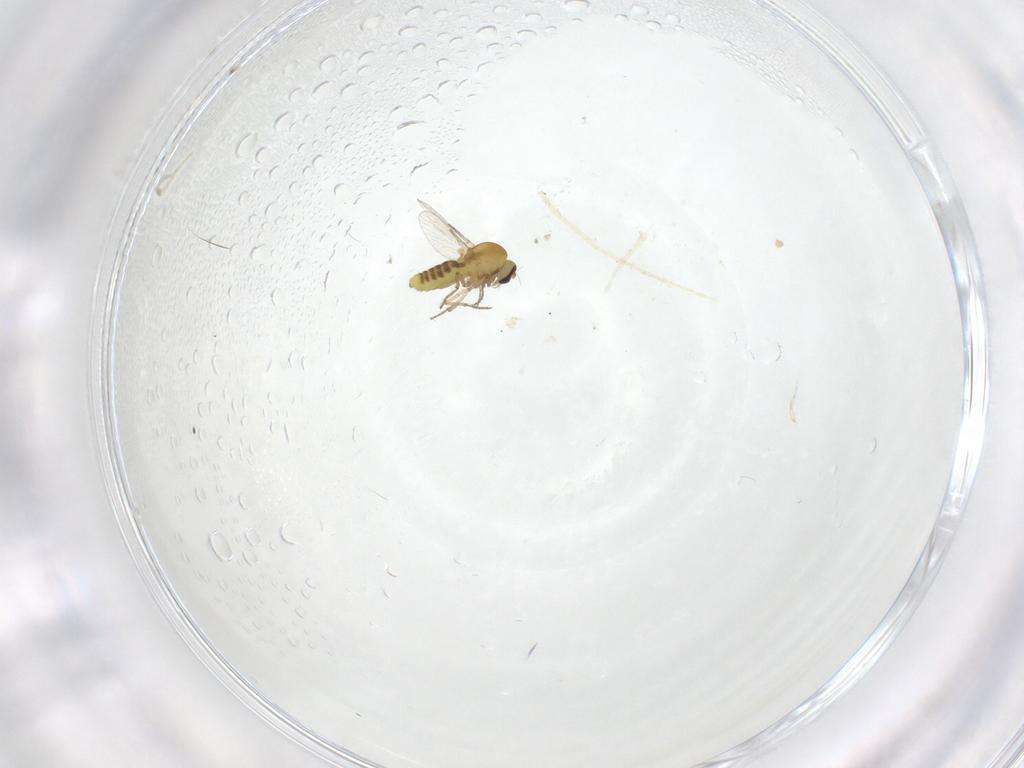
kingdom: Animalia
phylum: Arthropoda
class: Insecta
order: Diptera
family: Ceratopogonidae
